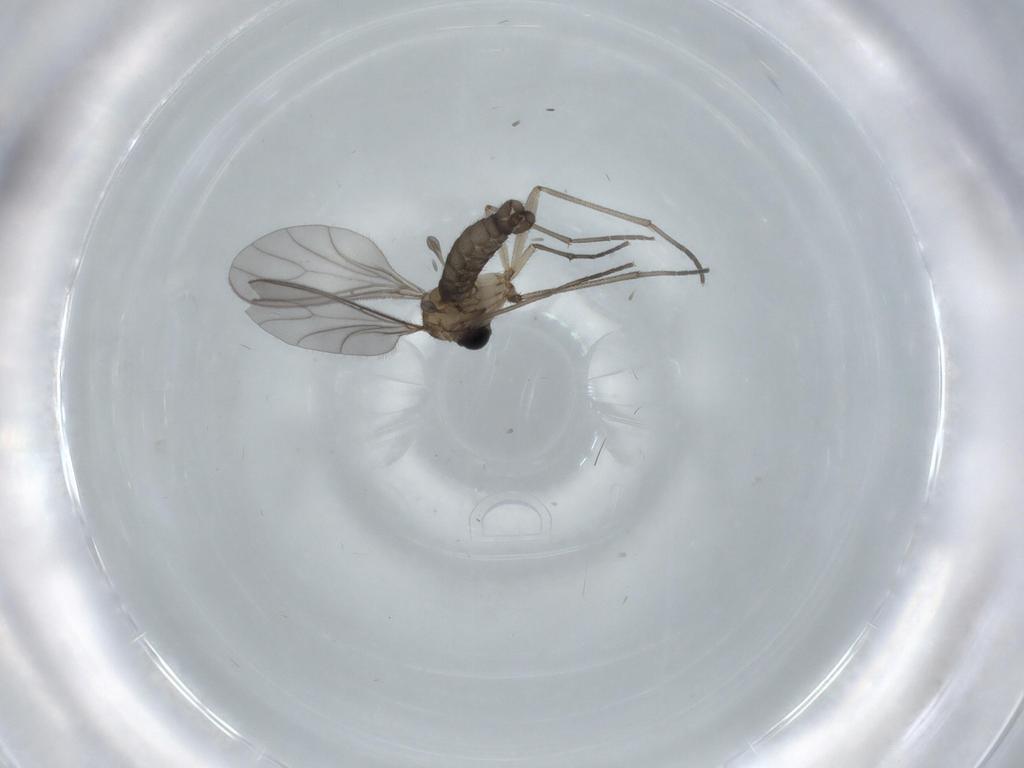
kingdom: Animalia
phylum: Arthropoda
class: Insecta
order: Diptera
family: Sciaridae
